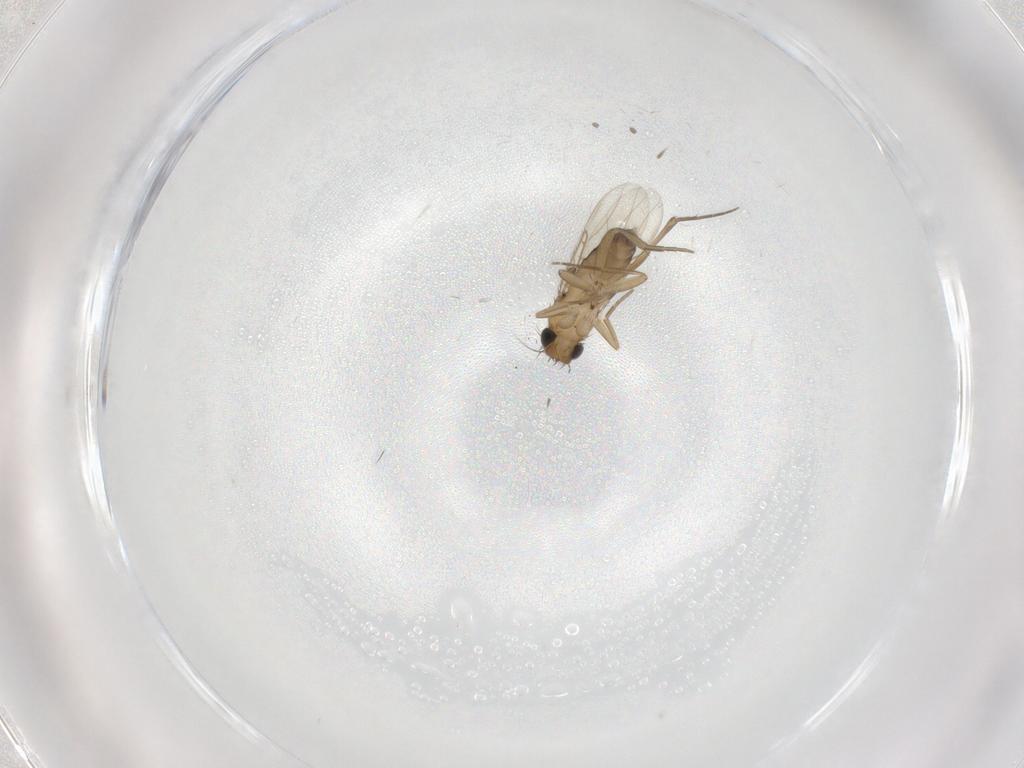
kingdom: Animalia
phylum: Arthropoda
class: Insecta
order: Diptera
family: Phoridae
